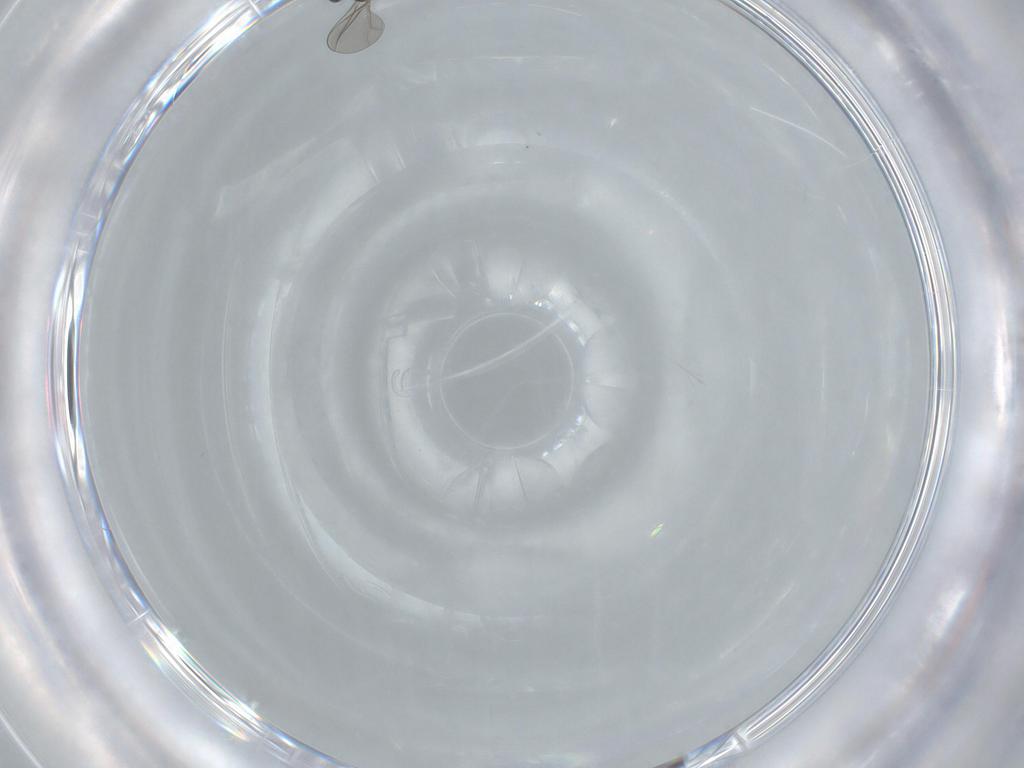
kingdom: Animalia
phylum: Arthropoda
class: Insecta
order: Diptera
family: Cecidomyiidae
